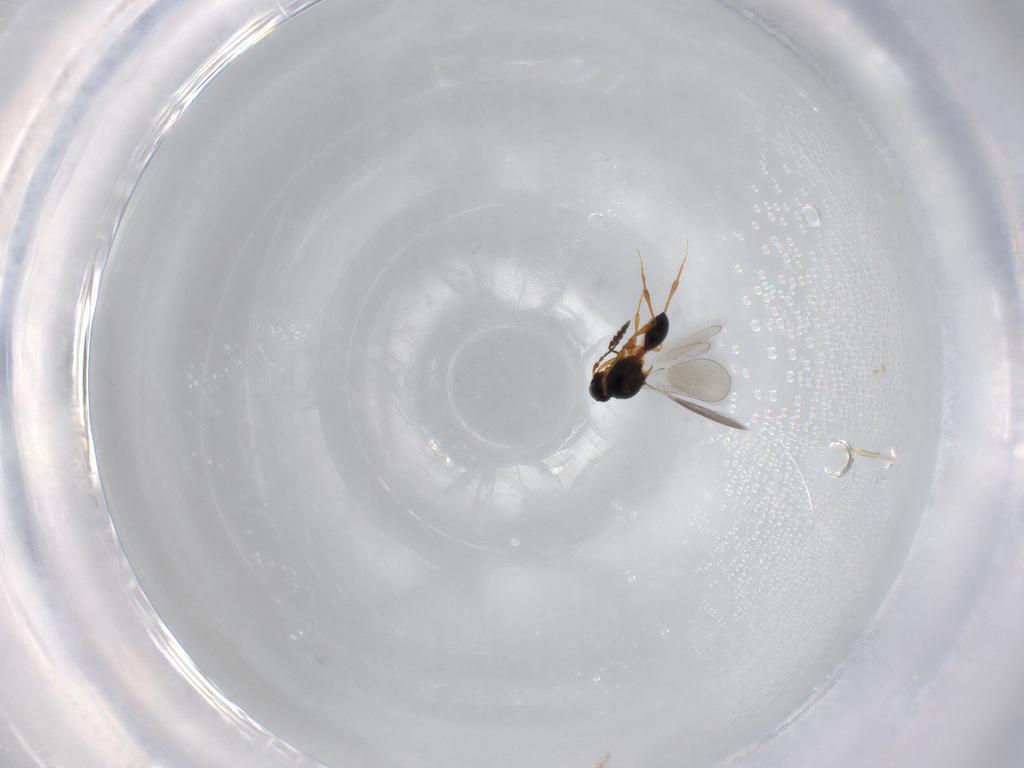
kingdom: Animalia
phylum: Arthropoda
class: Insecta
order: Hymenoptera
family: Platygastridae
